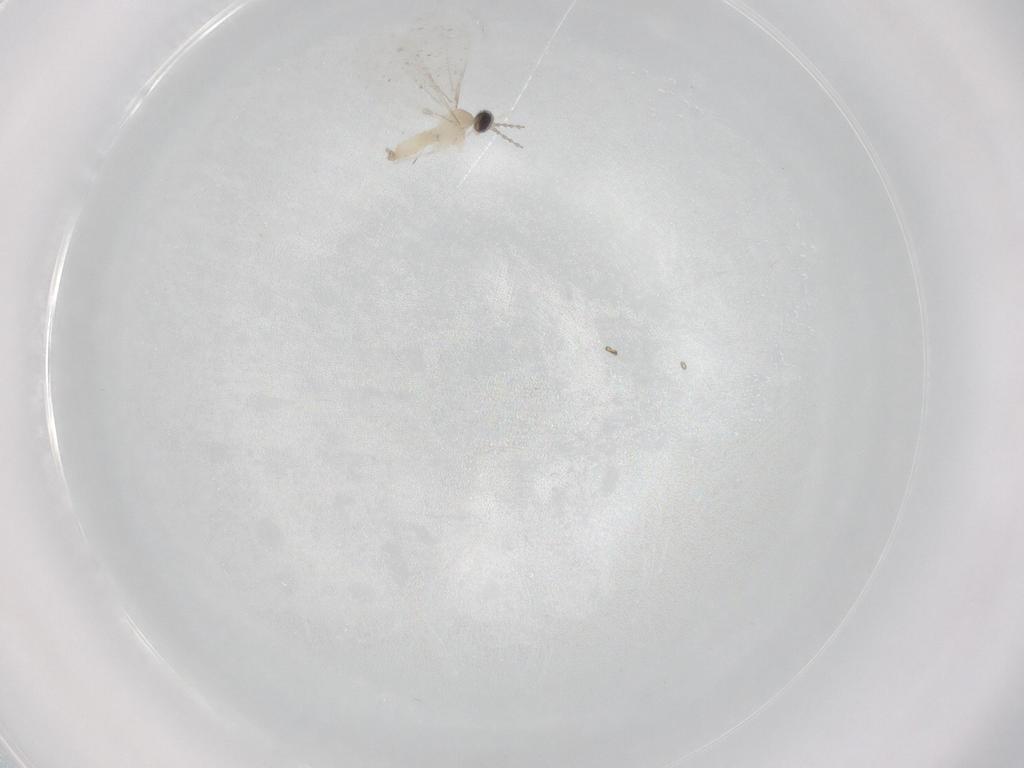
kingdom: Animalia
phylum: Arthropoda
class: Insecta
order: Diptera
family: Cecidomyiidae
